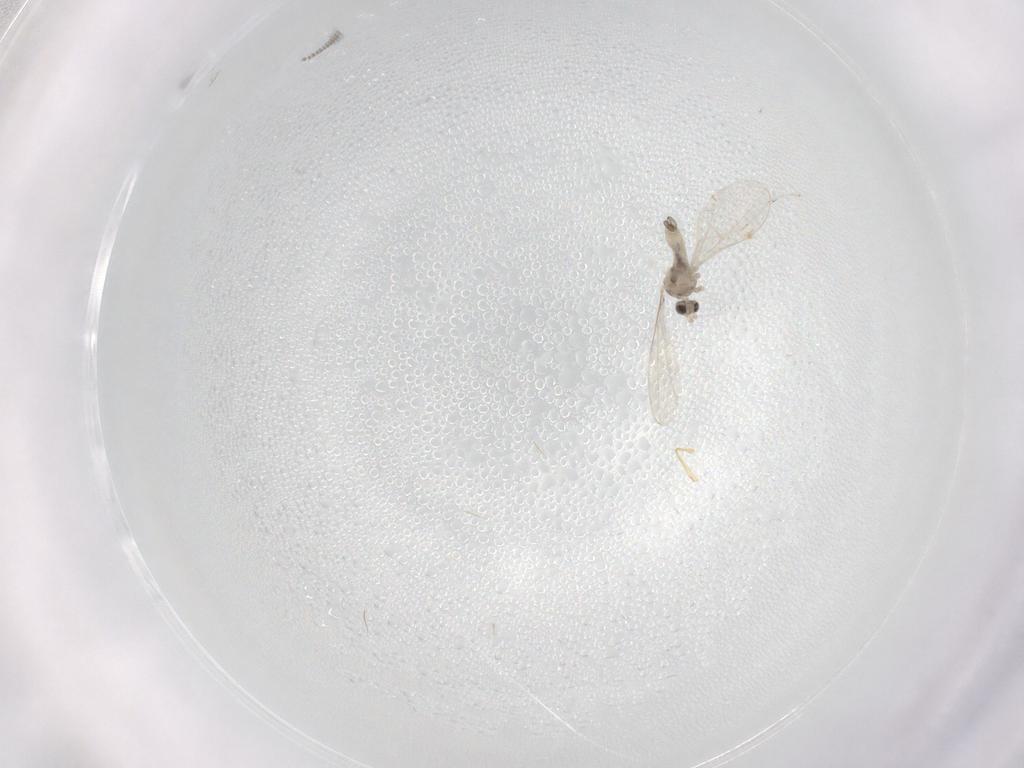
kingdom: Animalia
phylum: Arthropoda
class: Insecta
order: Diptera
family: Cecidomyiidae
